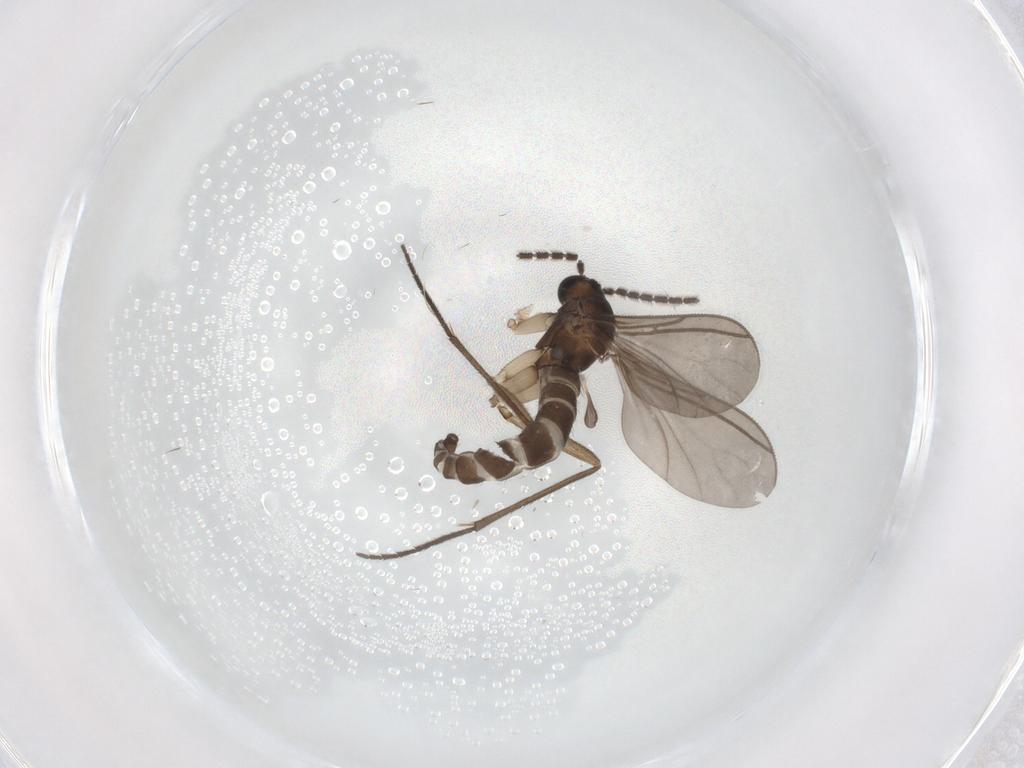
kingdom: Animalia
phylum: Arthropoda
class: Insecta
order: Diptera
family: Sciaridae
